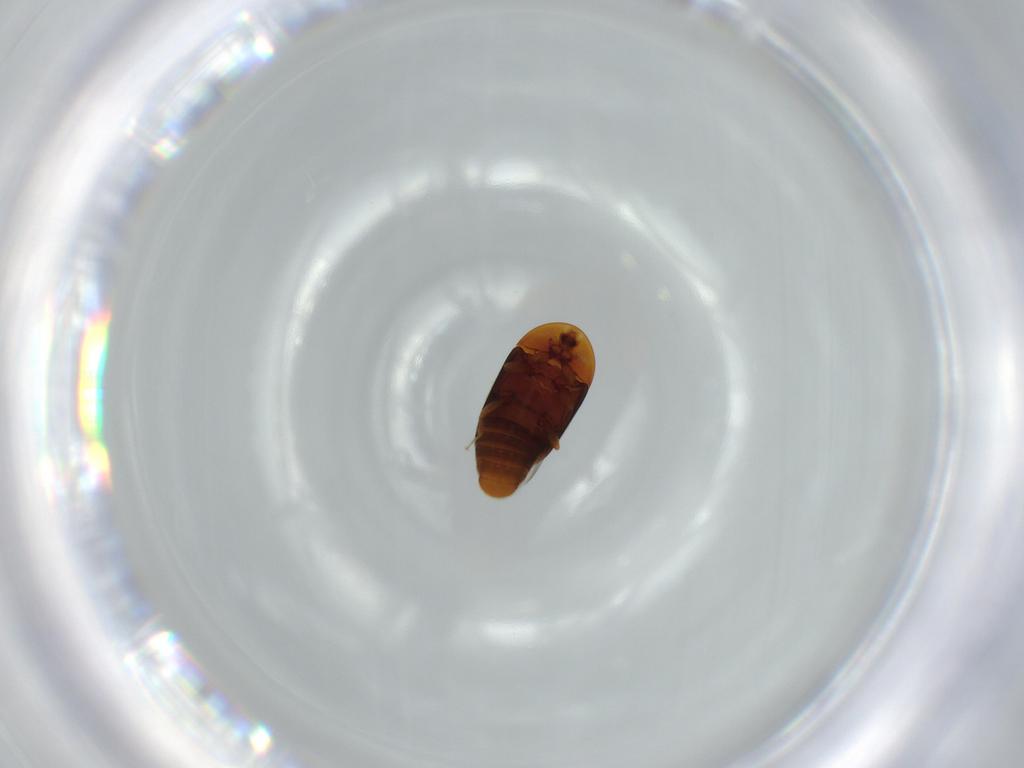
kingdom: Animalia
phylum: Arthropoda
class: Insecta
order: Coleoptera
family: Corylophidae
